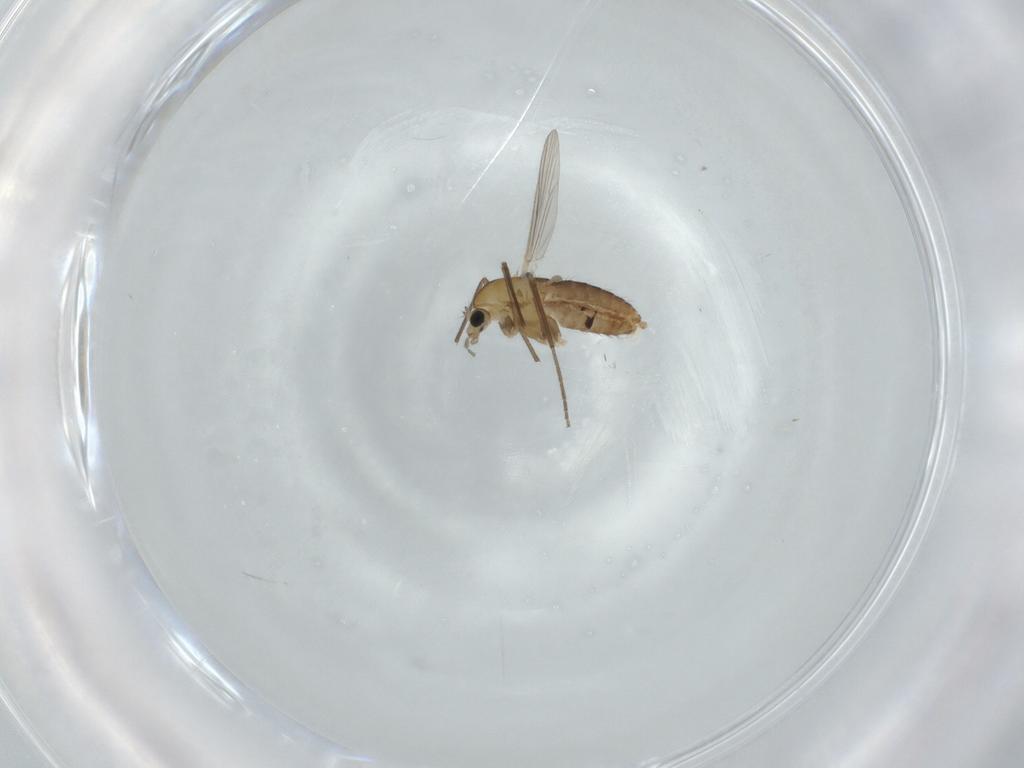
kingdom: Animalia
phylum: Arthropoda
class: Insecta
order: Diptera
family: Chironomidae
